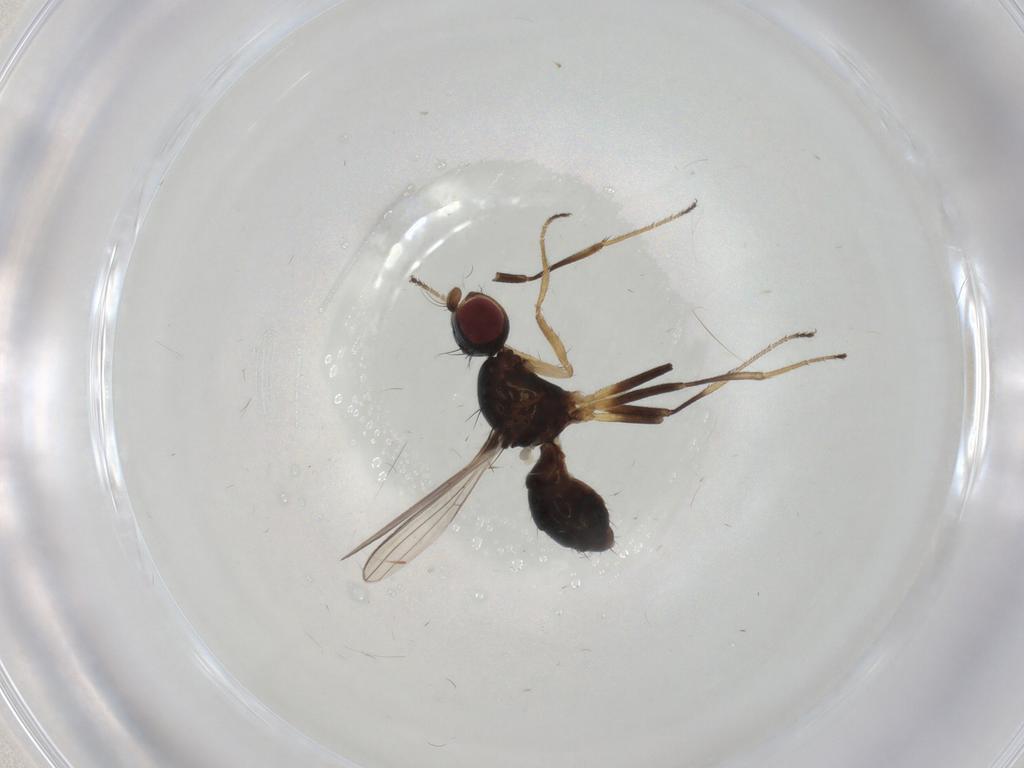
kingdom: Animalia
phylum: Arthropoda
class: Insecta
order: Diptera
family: Sepsidae
